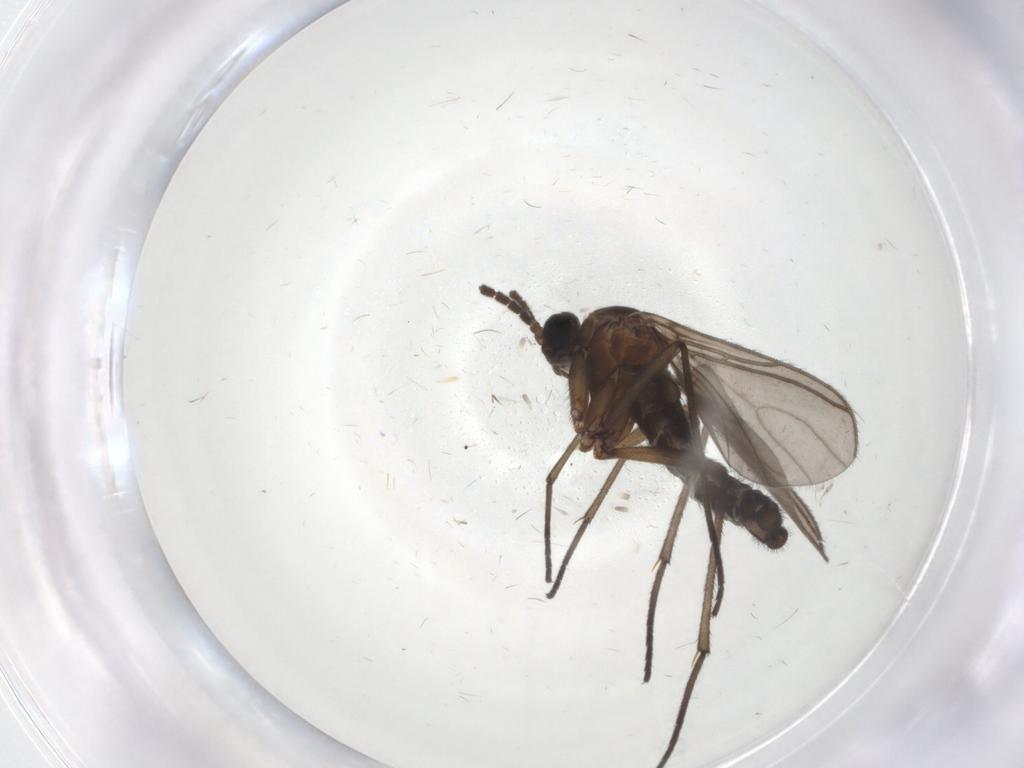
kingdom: Animalia
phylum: Arthropoda
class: Insecta
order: Diptera
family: Sciaridae
